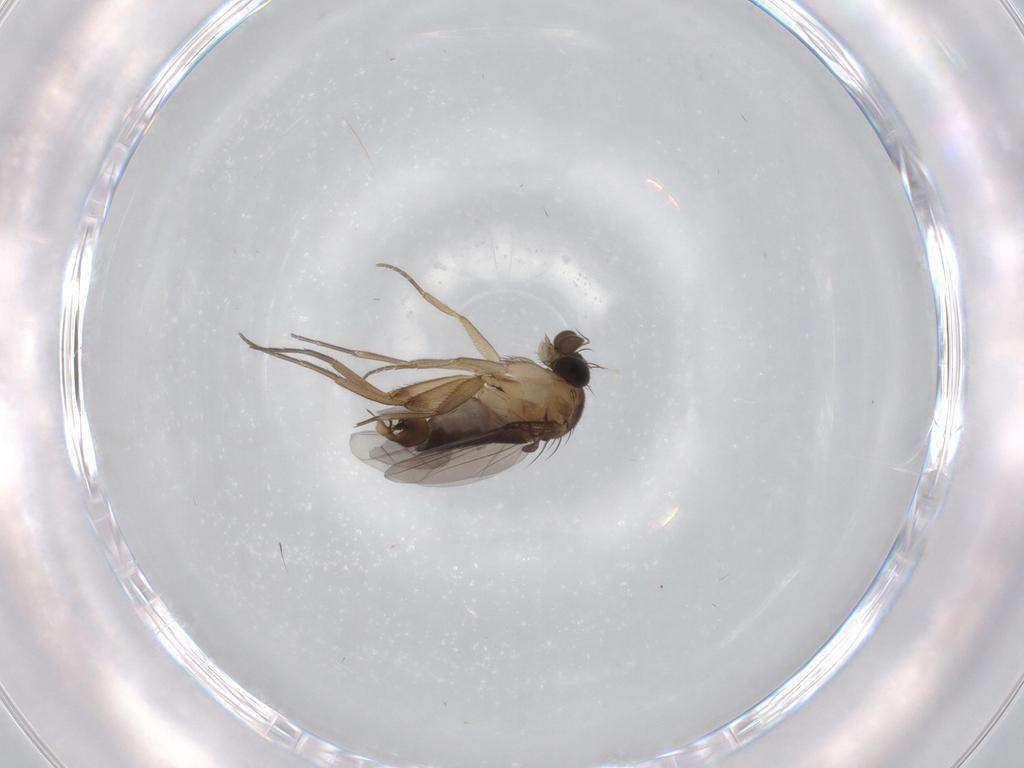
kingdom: Animalia
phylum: Arthropoda
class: Insecta
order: Diptera
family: Phoridae
